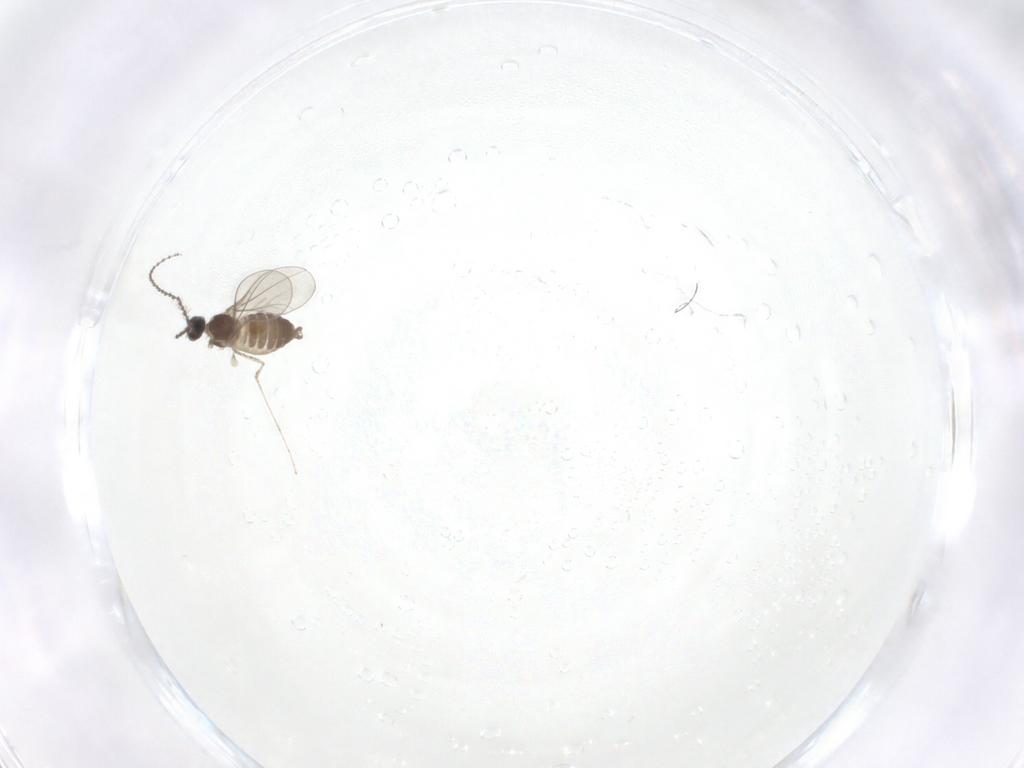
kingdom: Animalia
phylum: Arthropoda
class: Insecta
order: Diptera
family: Cecidomyiidae
